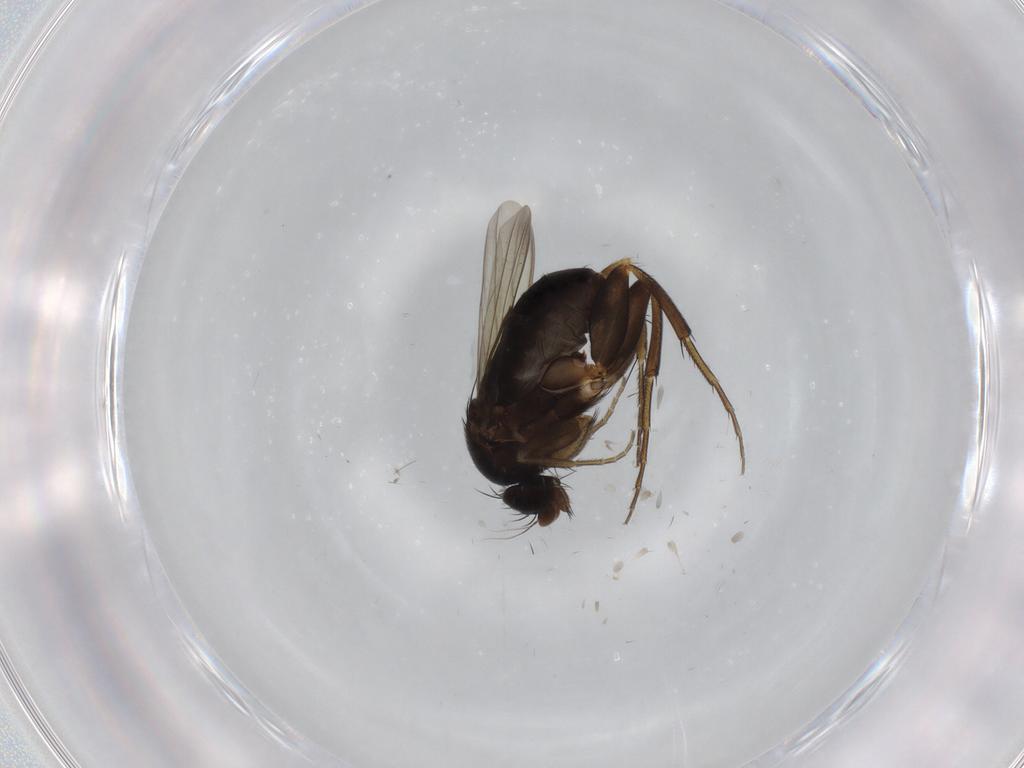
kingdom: Animalia
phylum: Arthropoda
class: Insecta
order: Diptera
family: Phoridae
